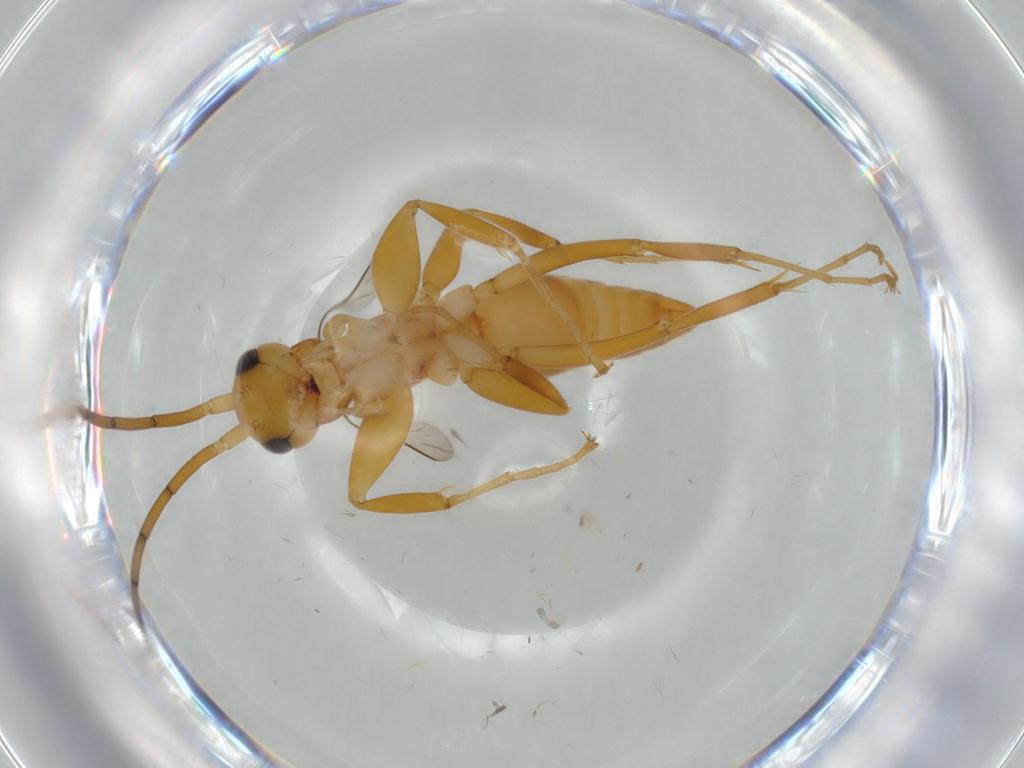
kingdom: Animalia
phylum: Arthropoda
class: Insecta
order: Hymenoptera
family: Rhopalosomatidae
